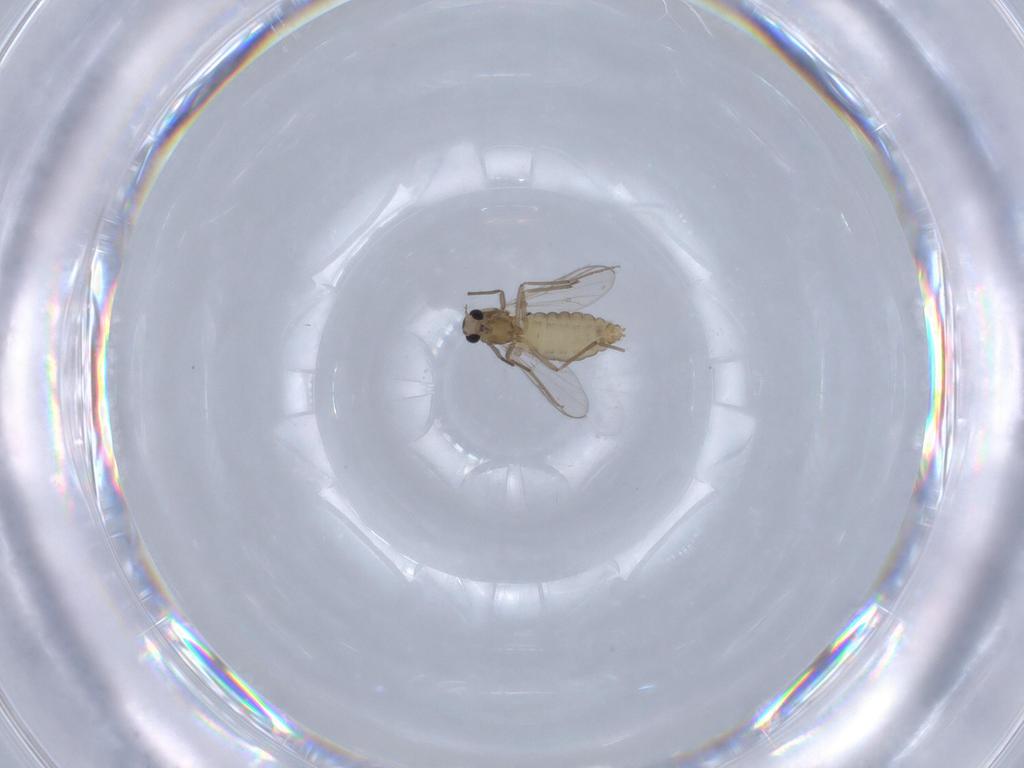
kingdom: Animalia
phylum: Arthropoda
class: Insecta
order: Diptera
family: Chironomidae
